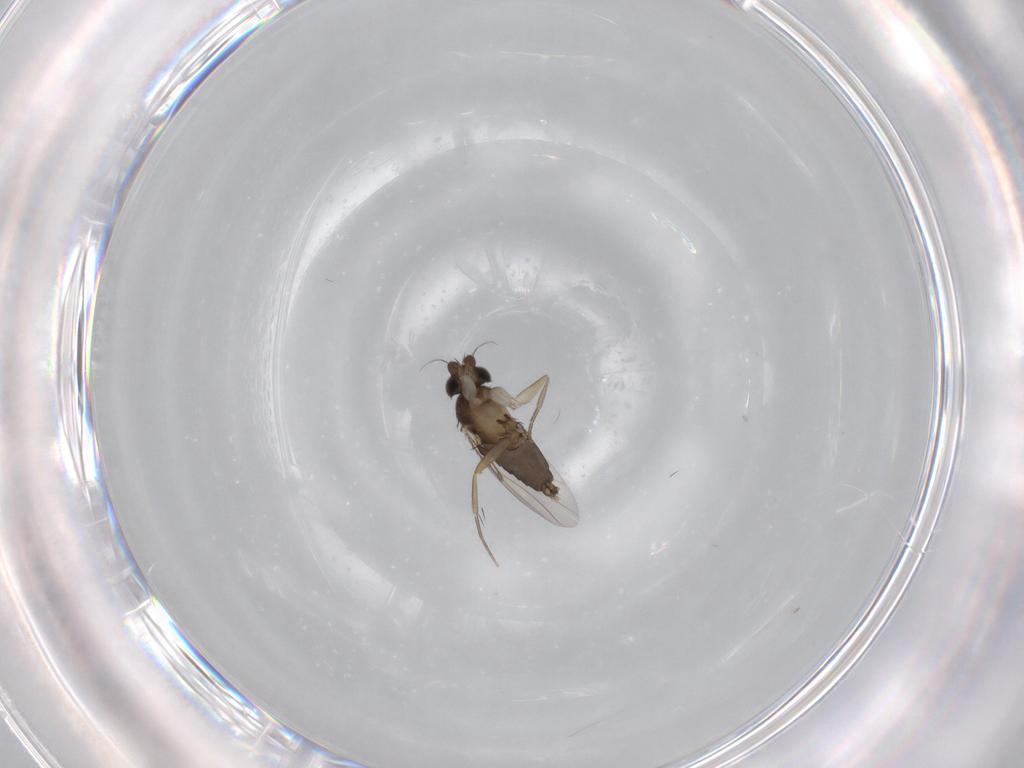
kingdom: Animalia
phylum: Arthropoda
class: Insecta
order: Diptera
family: Phoridae
